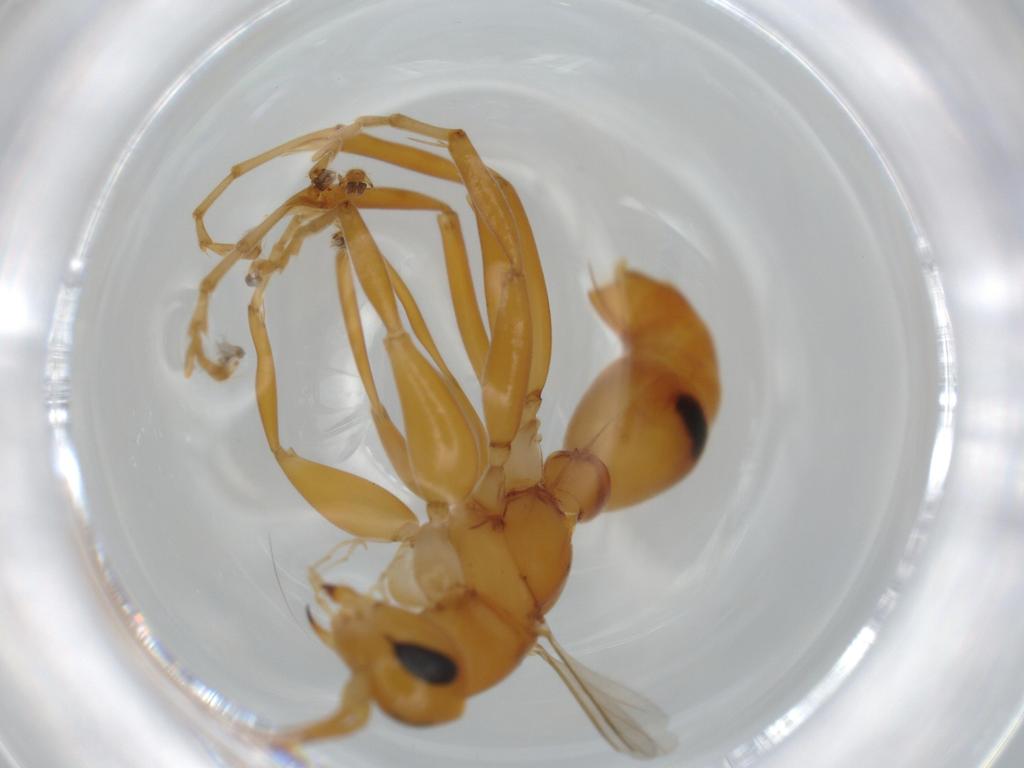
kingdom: Animalia
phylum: Arthropoda
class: Insecta
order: Hymenoptera
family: Rhopalosomatidae
